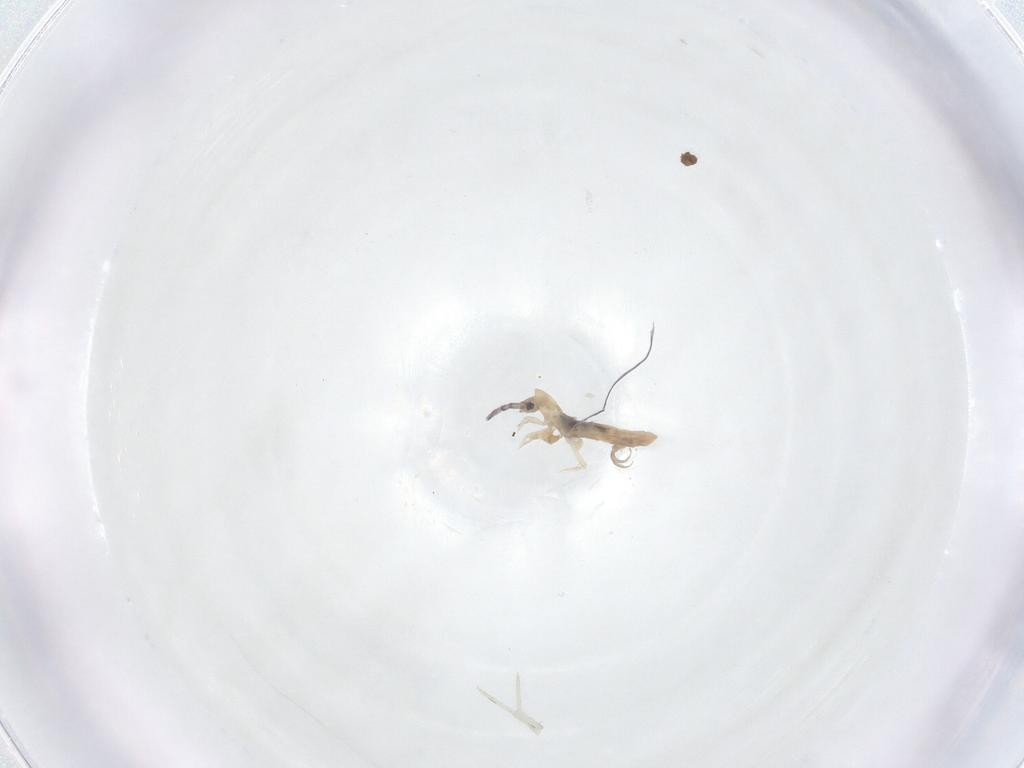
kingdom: Animalia
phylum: Arthropoda
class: Collembola
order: Entomobryomorpha
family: Entomobryidae
